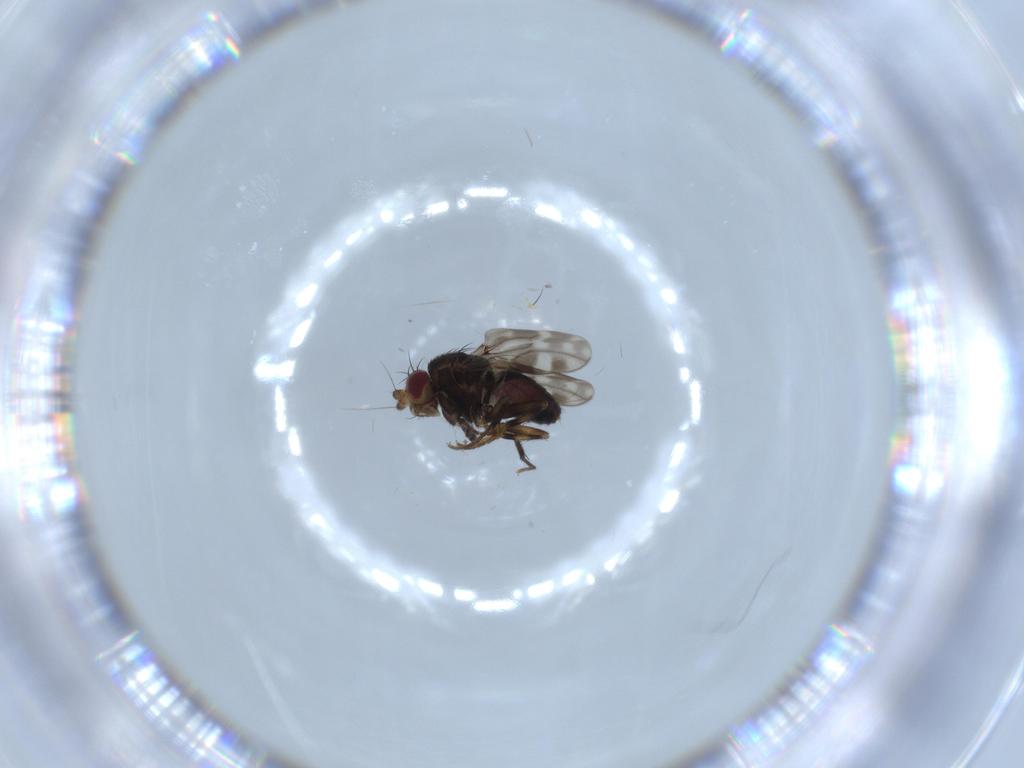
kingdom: Animalia
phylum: Arthropoda
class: Insecta
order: Diptera
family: Sphaeroceridae
